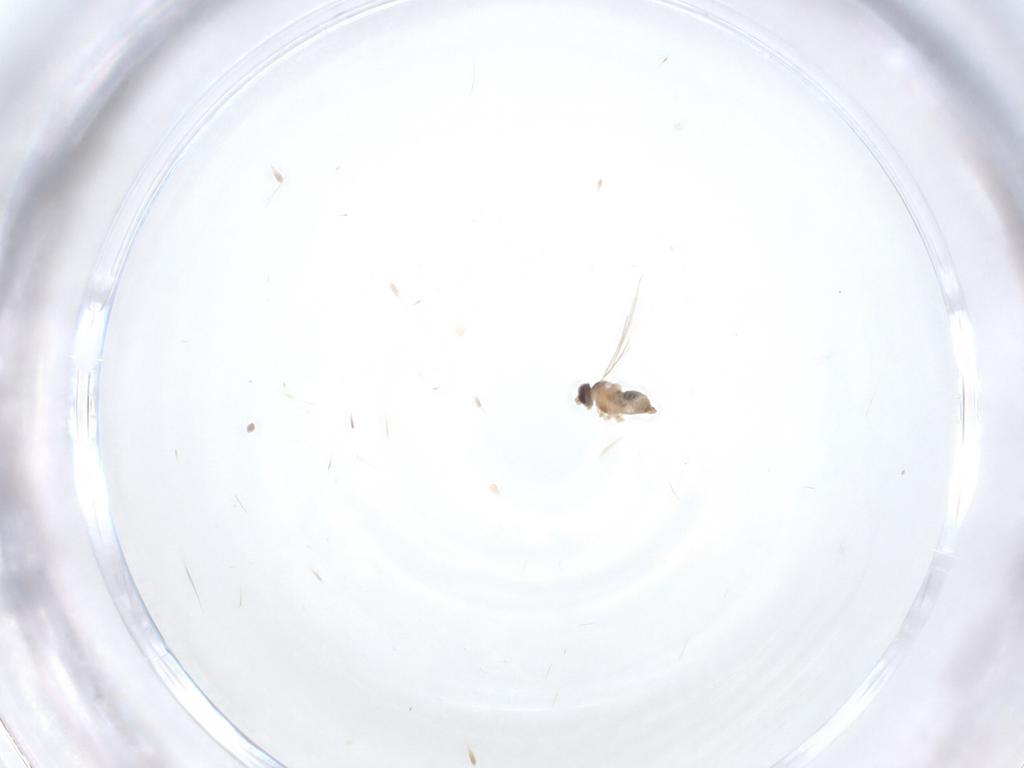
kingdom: Animalia
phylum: Arthropoda
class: Insecta
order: Diptera
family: Cecidomyiidae
